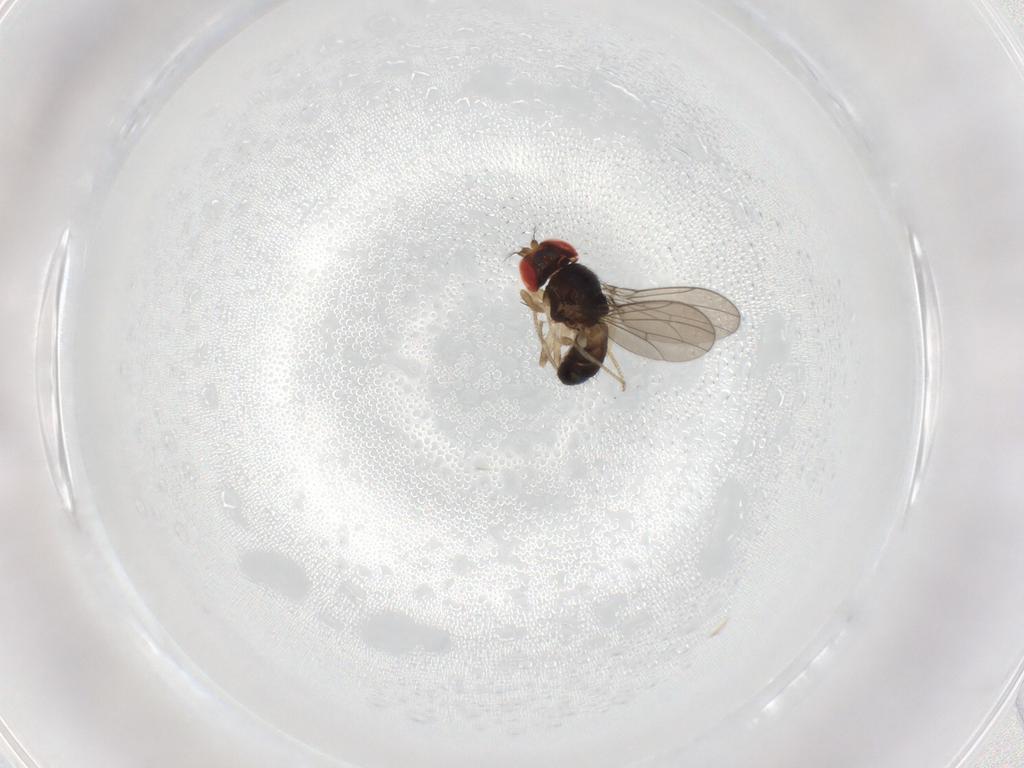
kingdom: Animalia
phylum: Arthropoda
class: Insecta
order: Diptera
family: Drosophilidae
